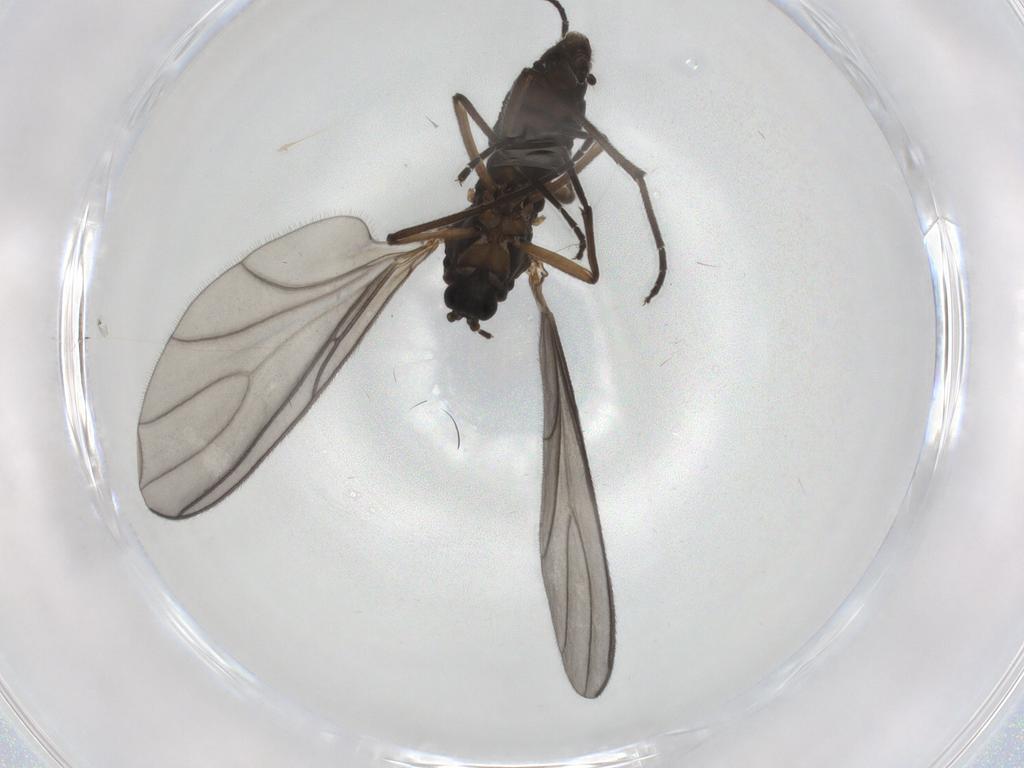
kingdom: Animalia
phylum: Arthropoda
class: Insecta
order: Diptera
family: Sciaridae
